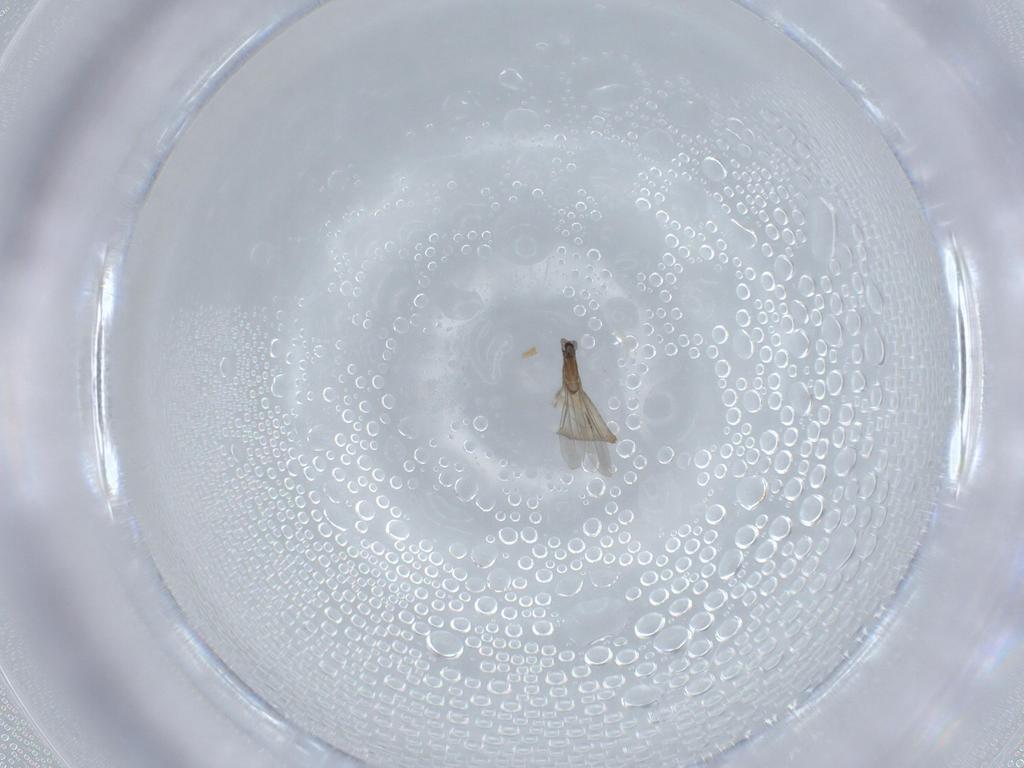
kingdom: Animalia
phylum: Arthropoda
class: Insecta
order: Diptera
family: Cecidomyiidae
